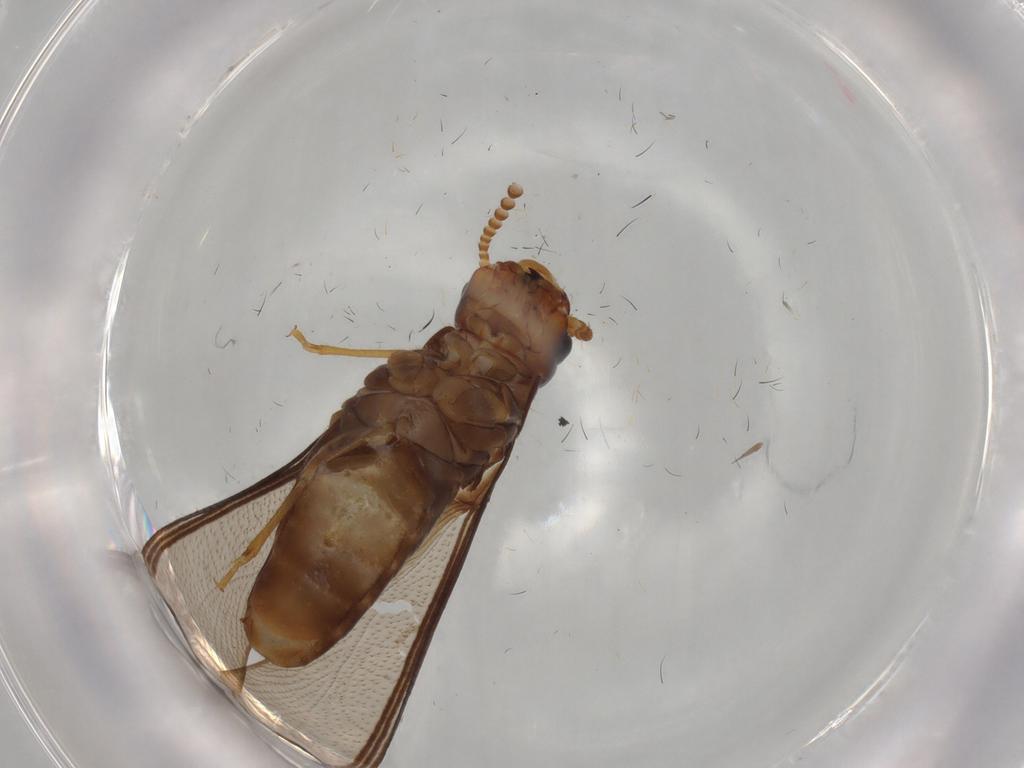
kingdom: Animalia
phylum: Arthropoda
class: Insecta
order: Blattodea
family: Kalotermitidae
